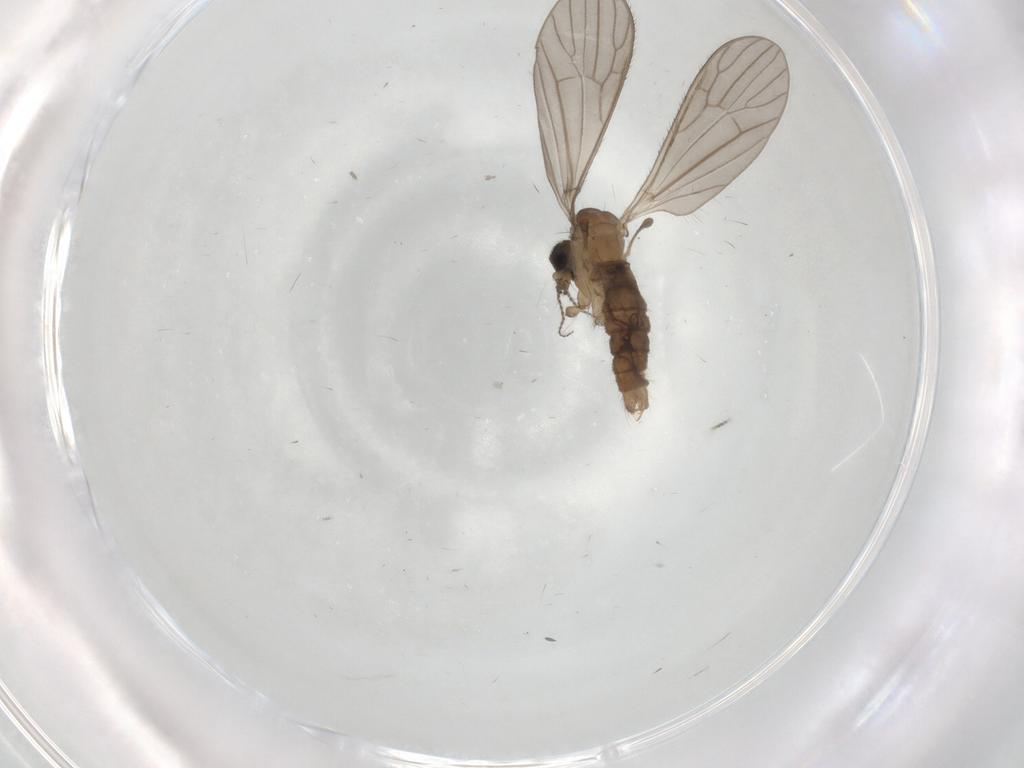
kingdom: Animalia
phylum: Arthropoda
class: Insecta
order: Diptera
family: Limoniidae
